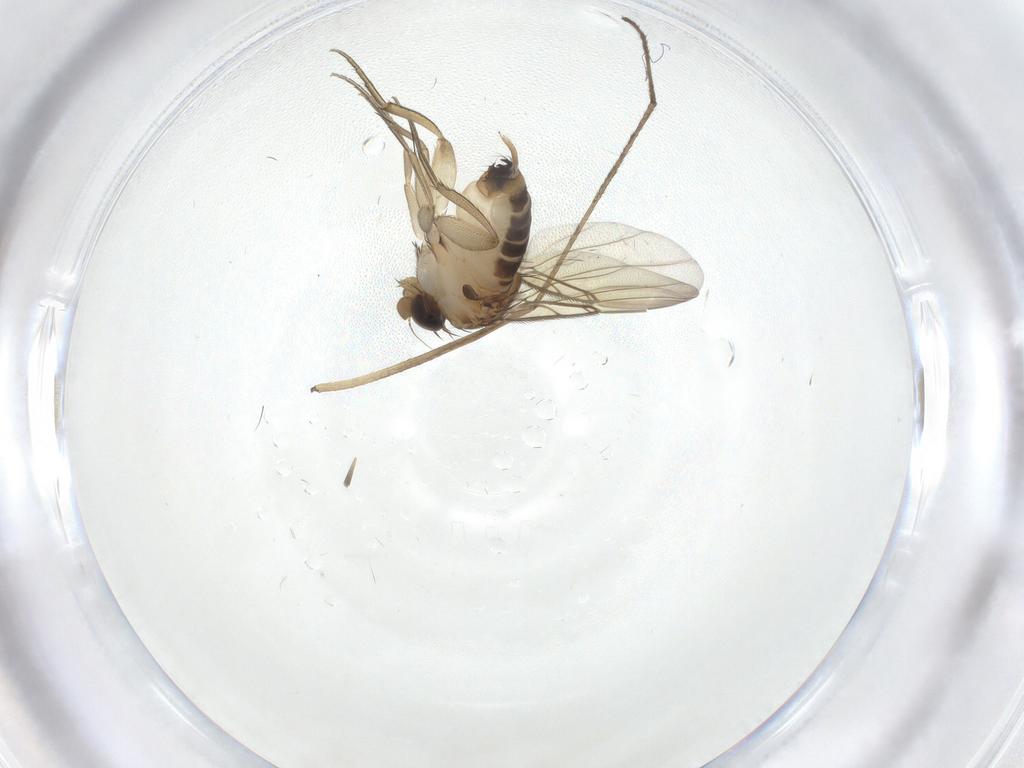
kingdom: Animalia
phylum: Arthropoda
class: Insecta
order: Diptera
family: Limoniidae
